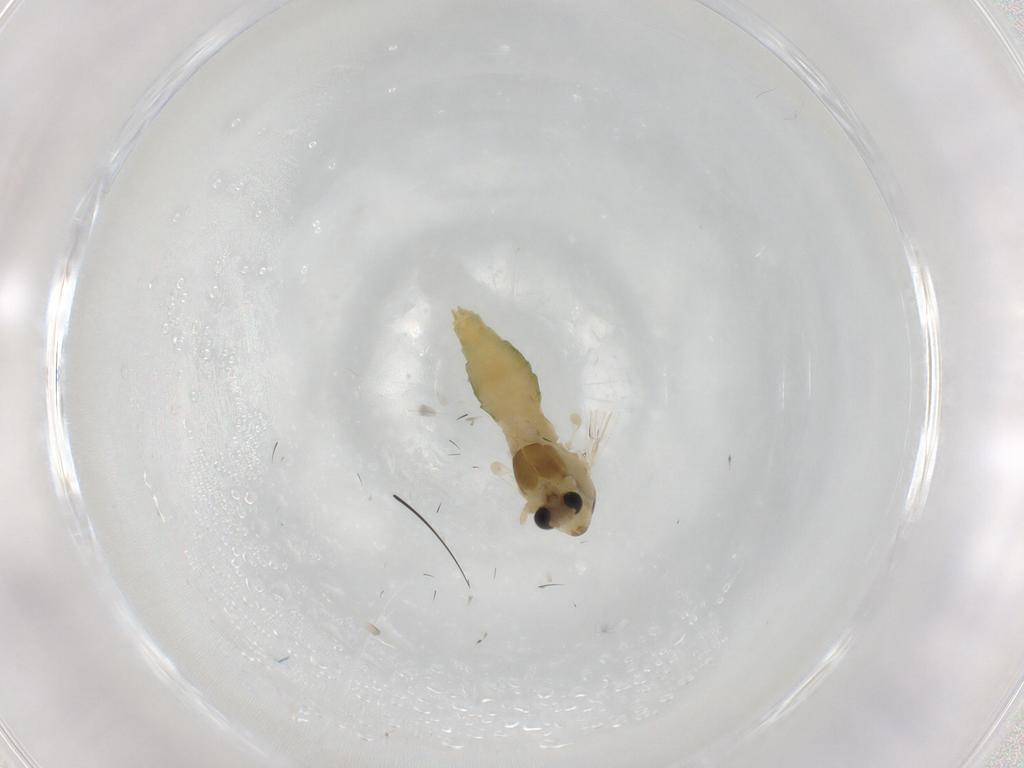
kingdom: Animalia
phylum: Arthropoda
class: Insecta
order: Diptera
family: Chironomidae
